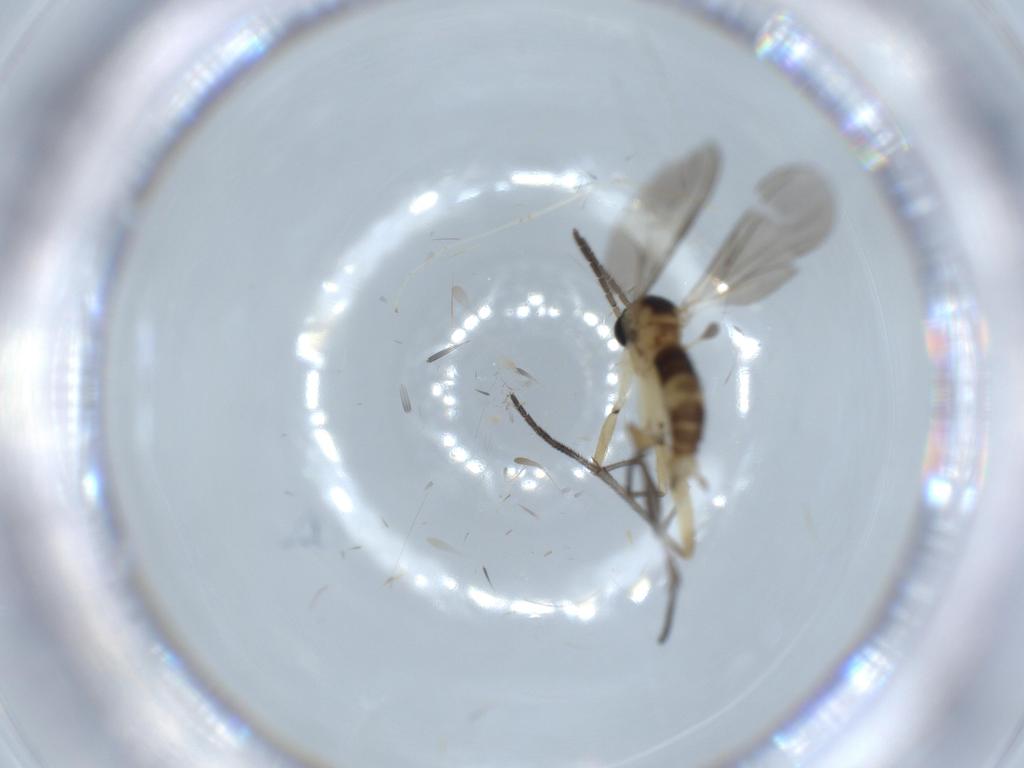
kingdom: Animalia
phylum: Arthropoda
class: Insecta
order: Diptera
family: Sciaridae
